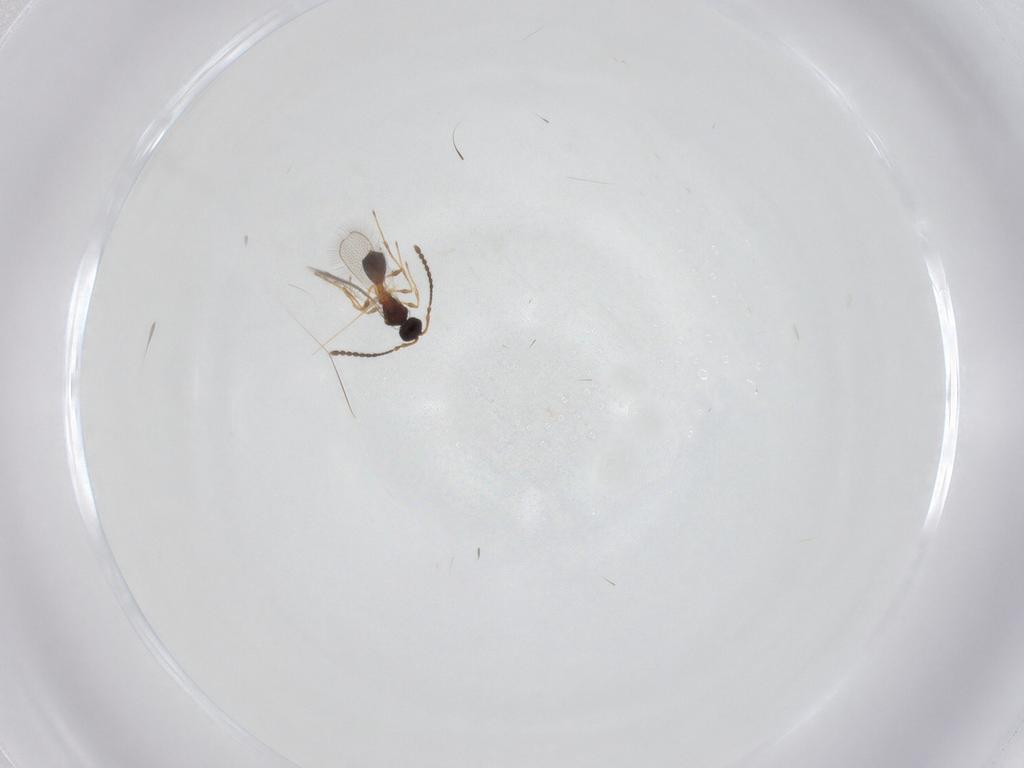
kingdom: Animalia
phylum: Arthropoda
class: Insecta
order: Hymenoptera
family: Diapriidae
